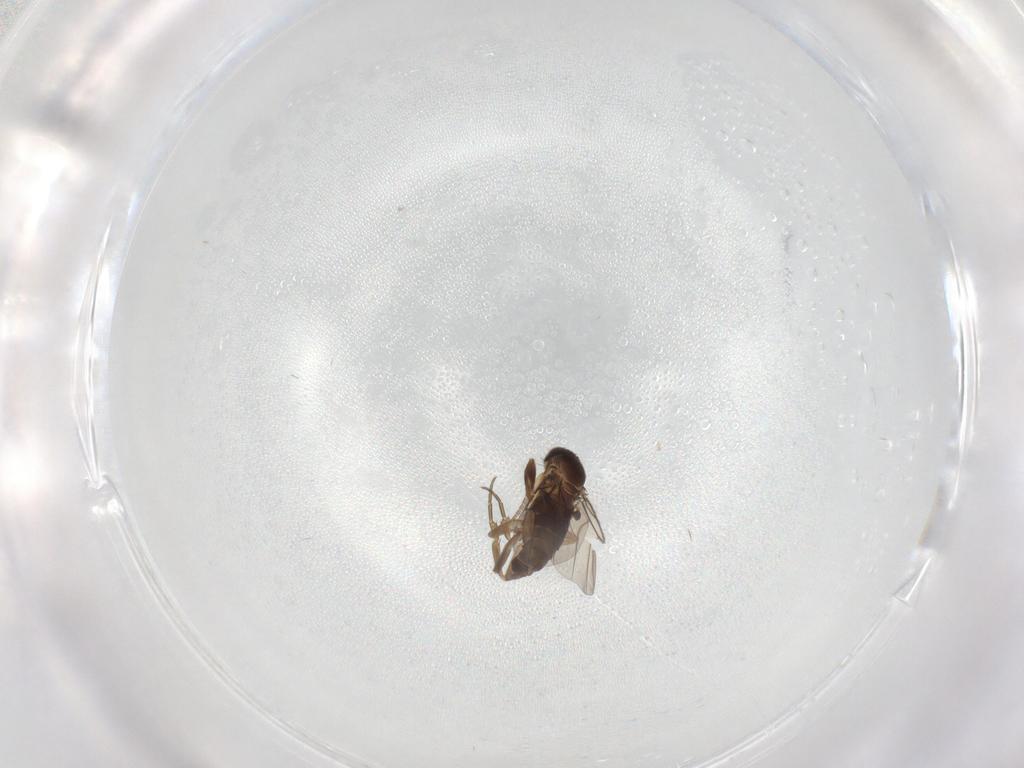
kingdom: Animalia
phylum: Arthropoda
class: Insecta
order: Diptera
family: Phoridae
